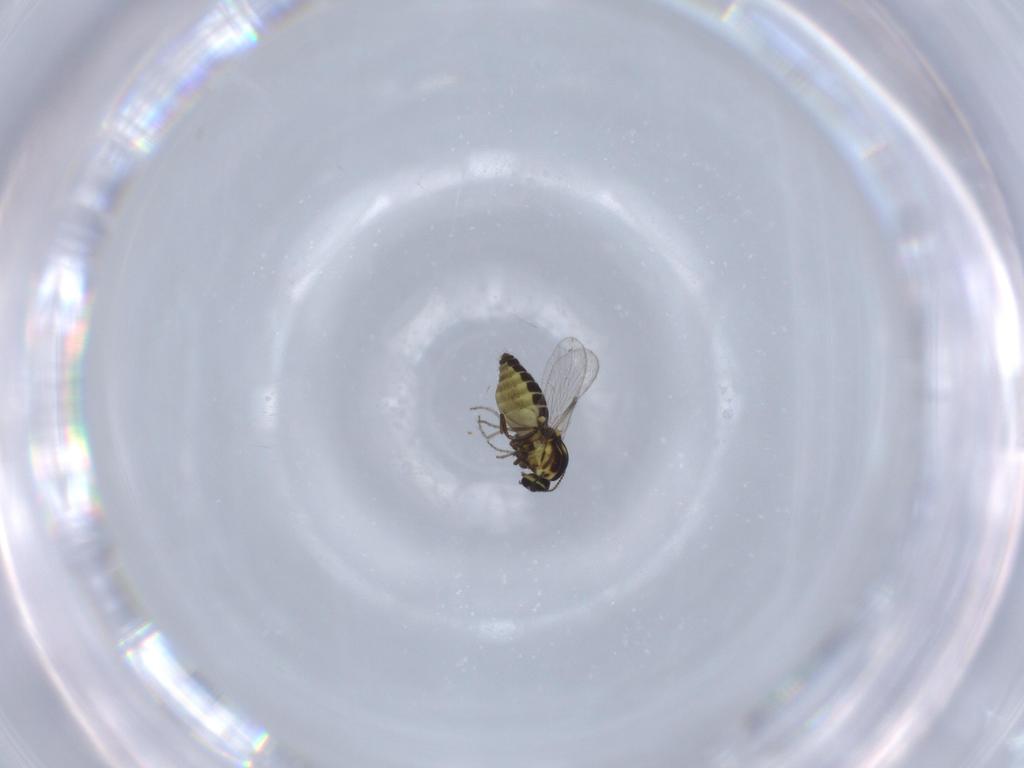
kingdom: Animalia
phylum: Arthropoda
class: Insecta
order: Diptera
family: Ceratopogonidae
